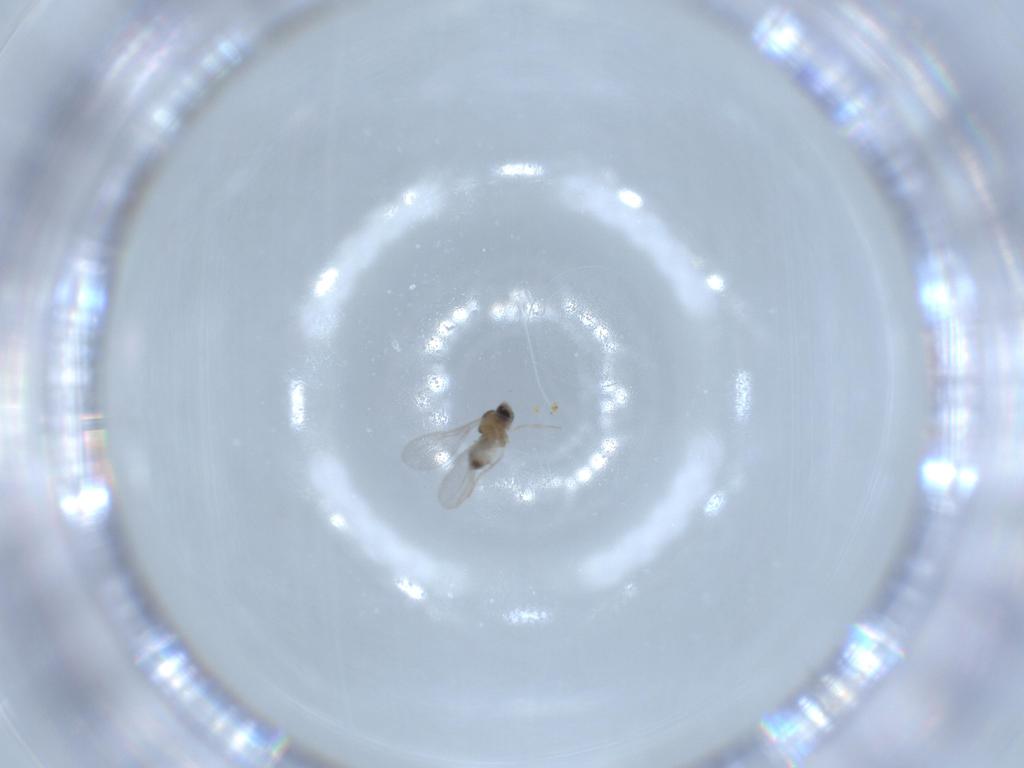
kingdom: Animalia
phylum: Arthropoda
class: Insecta
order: Diptera
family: Cecidomyiidae
